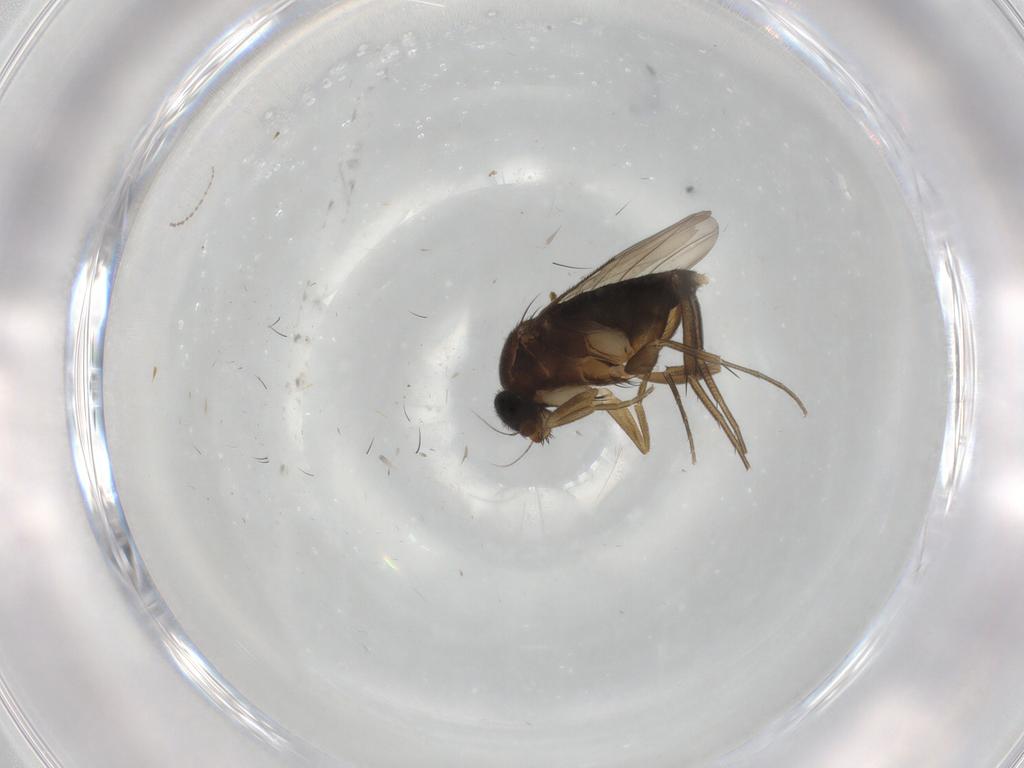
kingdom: Animalia
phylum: Arthropoda
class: Insecta
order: Diptera
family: Phoridae
